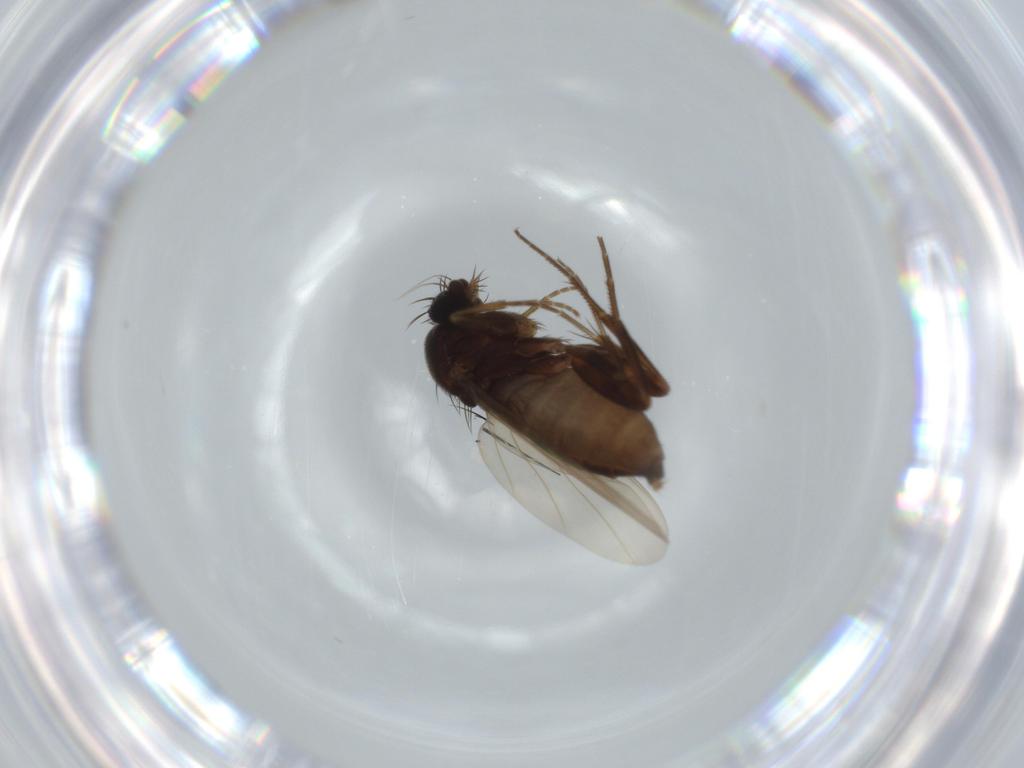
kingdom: Animalia
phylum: Arthropoda
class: Insecta
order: Diptera
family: Phoridae
